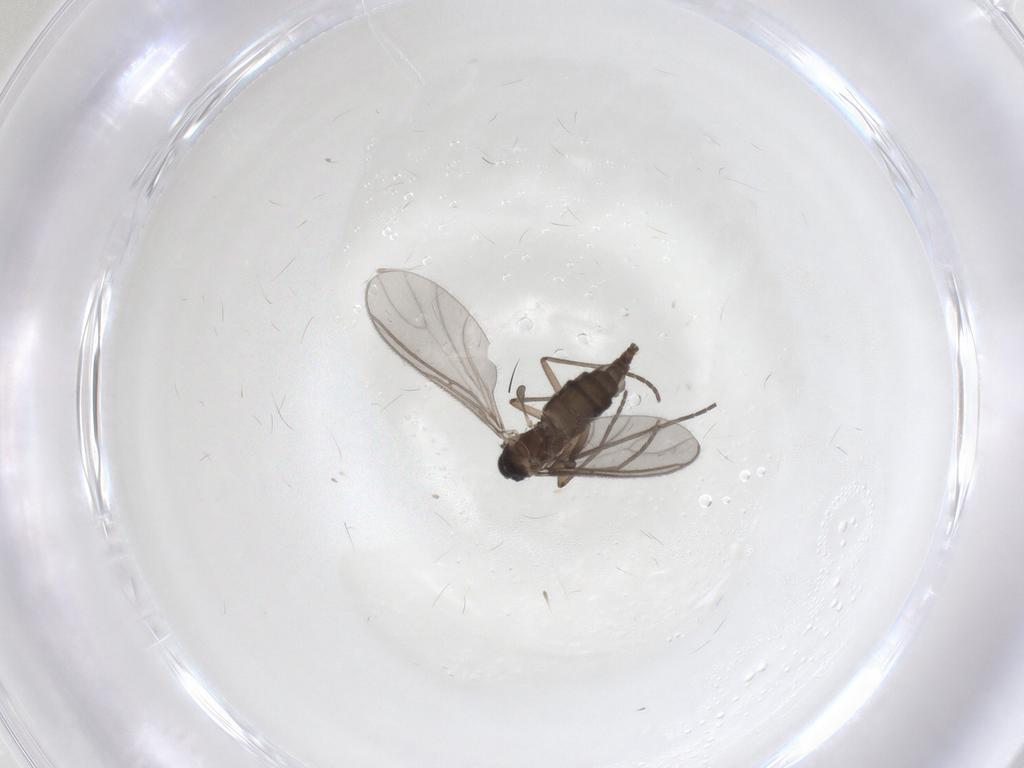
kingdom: Animalia
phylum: Arthropoda
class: Insecta
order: Diptera
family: Sciaridae
